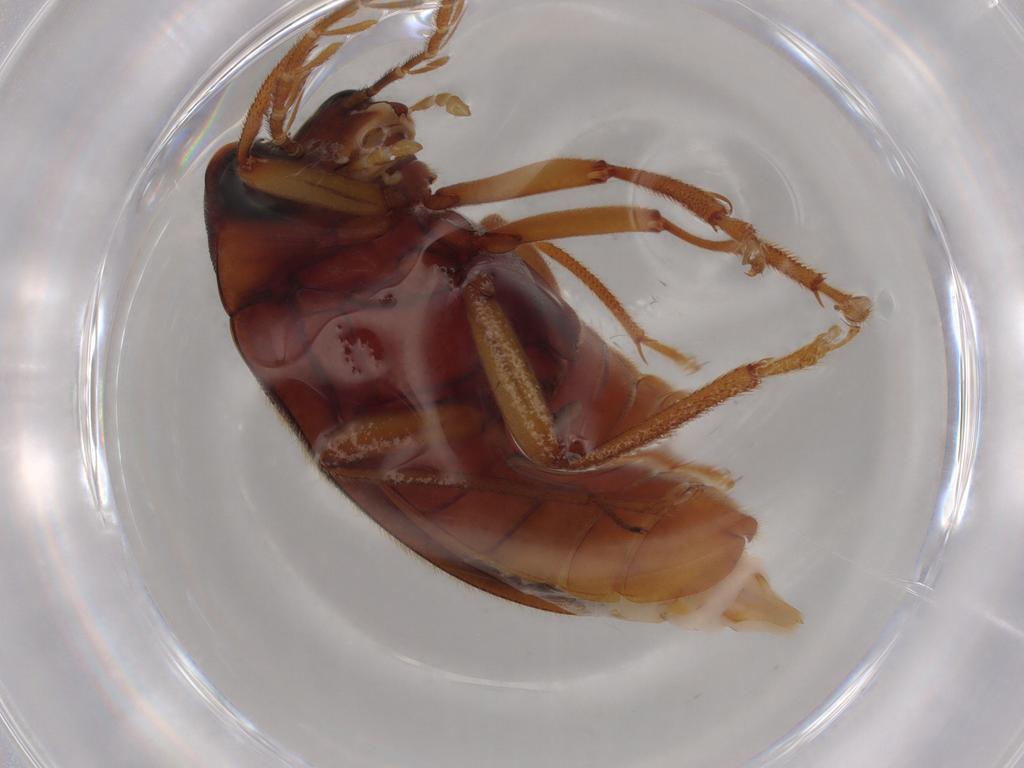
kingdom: Animalia
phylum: Arthropoda
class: Insecta
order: Coleoptera
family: Ptilodactylidae
